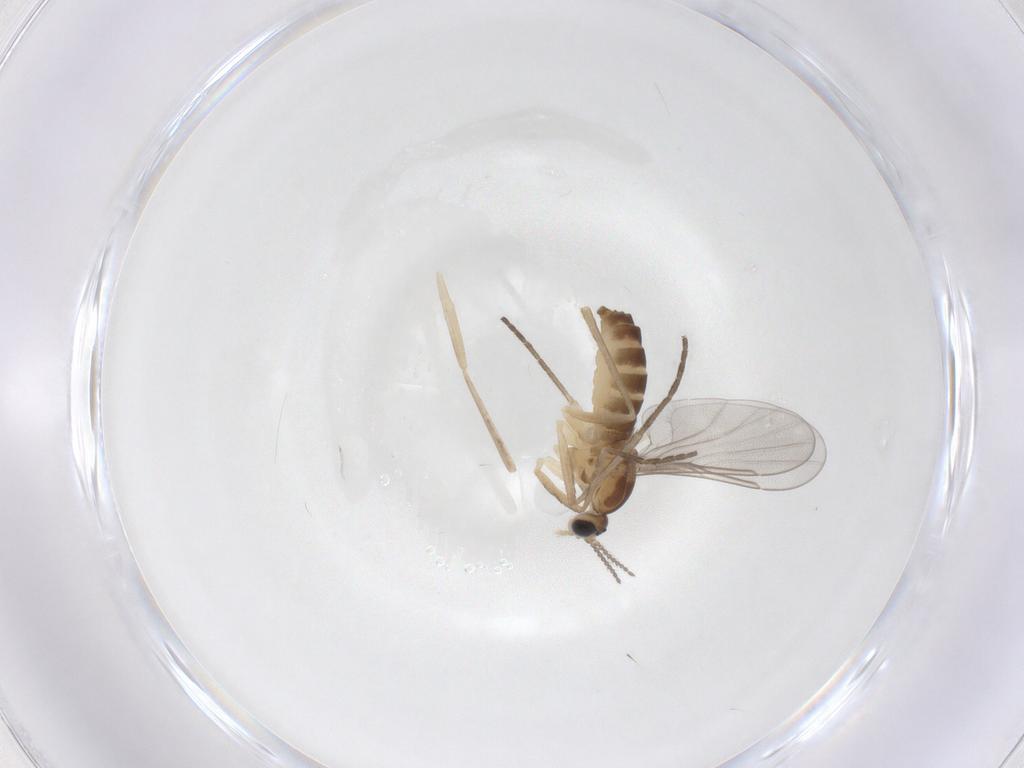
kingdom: Animalia
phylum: Arthropoda
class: Insecta
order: Diptera
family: Cecidomyiidae
